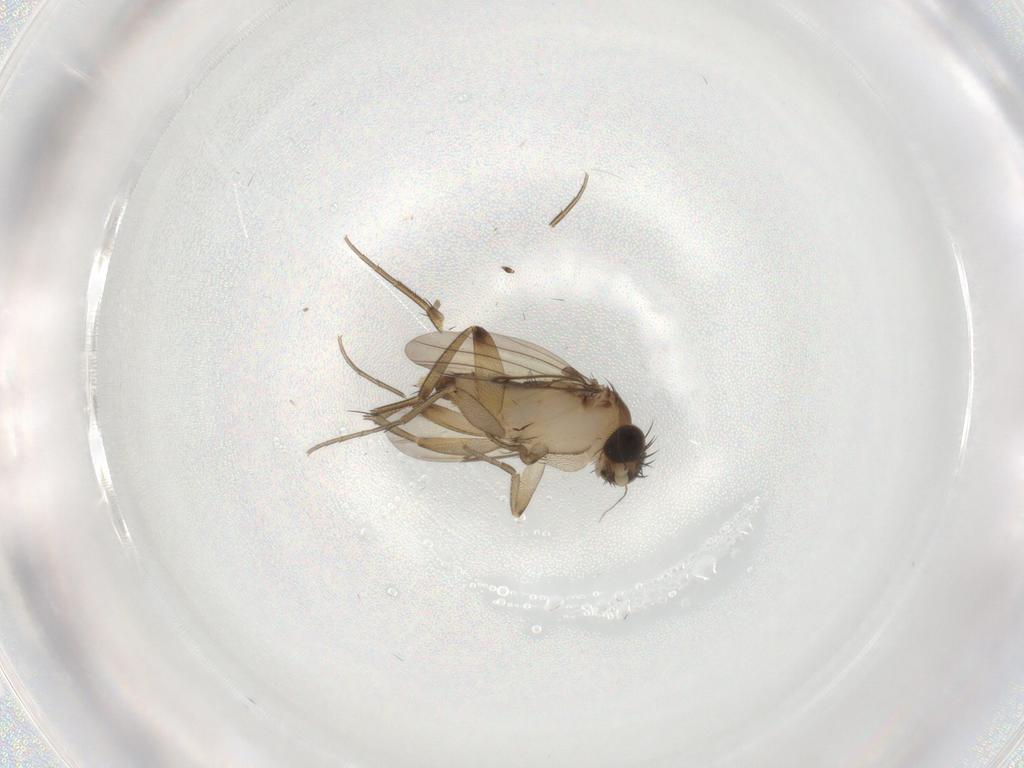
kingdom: Animalia
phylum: Arthropoda
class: Insecta
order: Diptera
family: Phoridae
